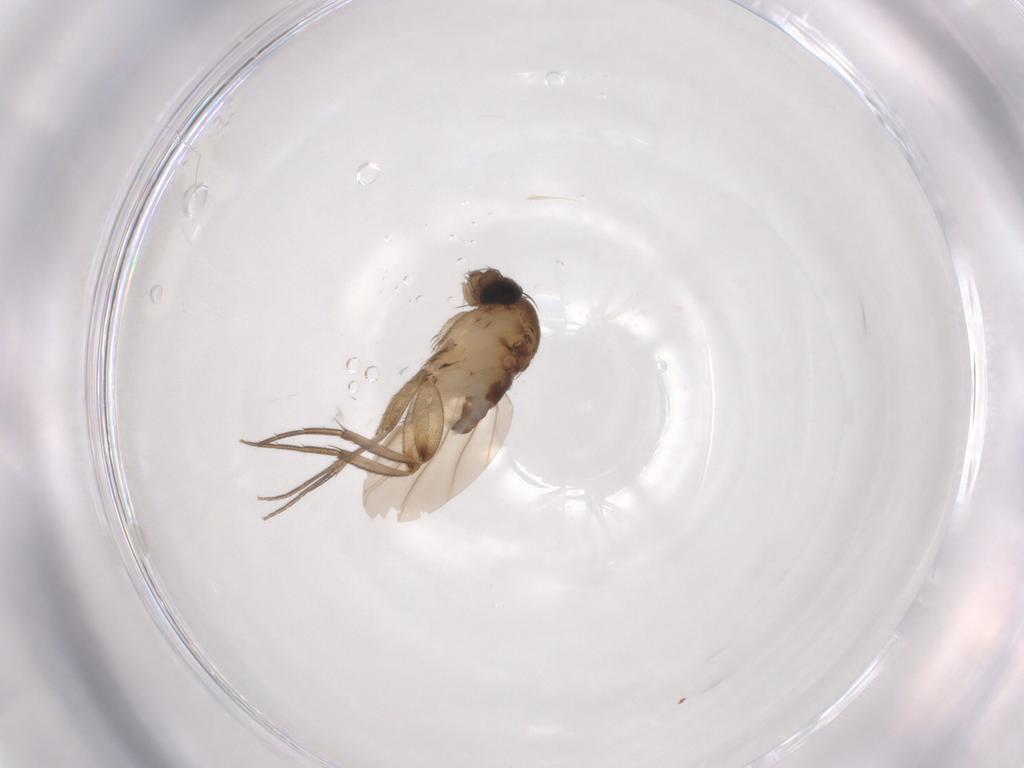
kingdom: Animalia
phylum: Arthropoda
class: Insecta
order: Diptera
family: Phoridae
